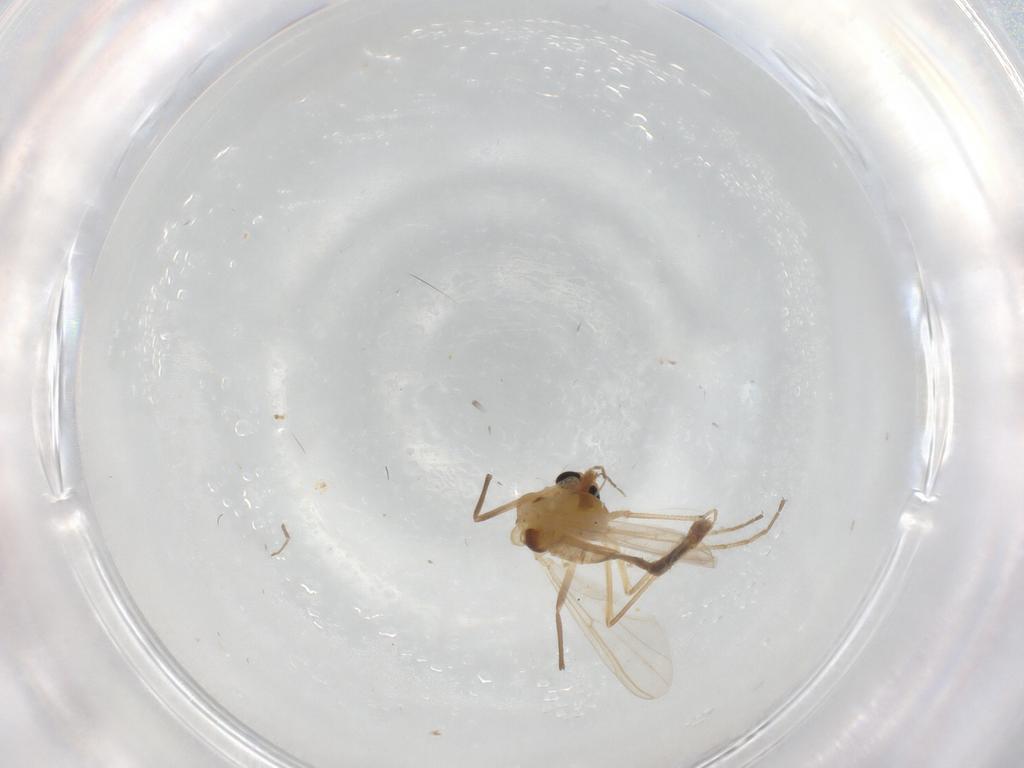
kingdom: Animalia
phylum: Arthropoda
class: Insecta
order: Diptera
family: Chironomidae
